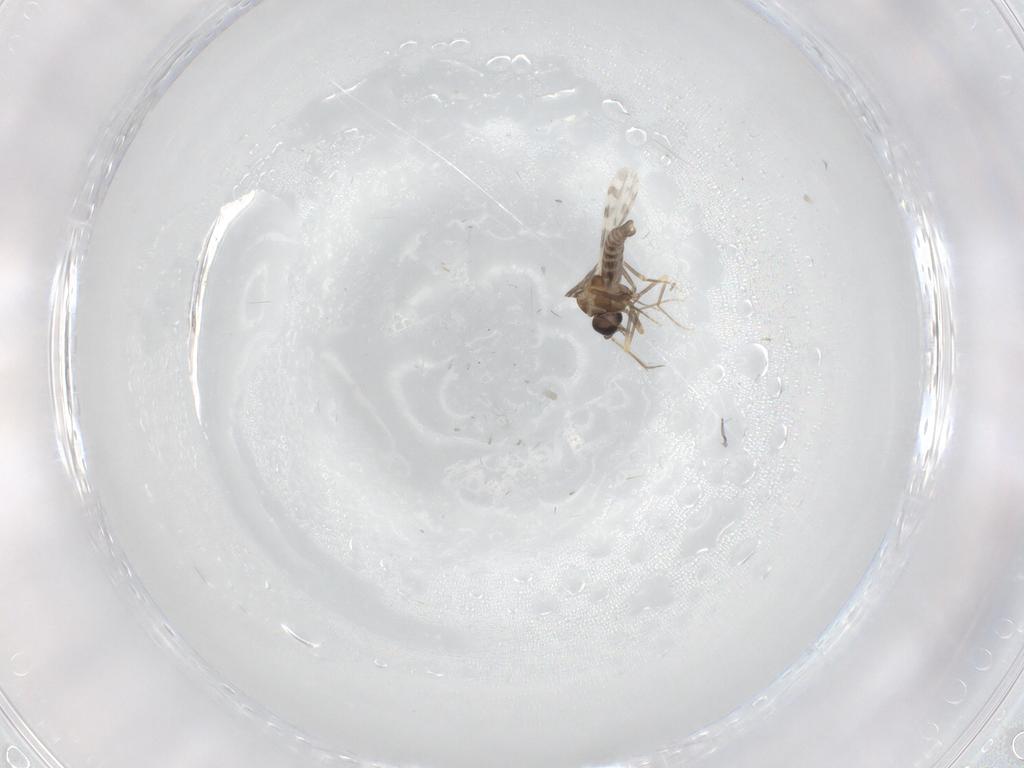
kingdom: Animalia
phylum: Arthropoda
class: Insecta
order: Diptera
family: Ceratopogonidae
